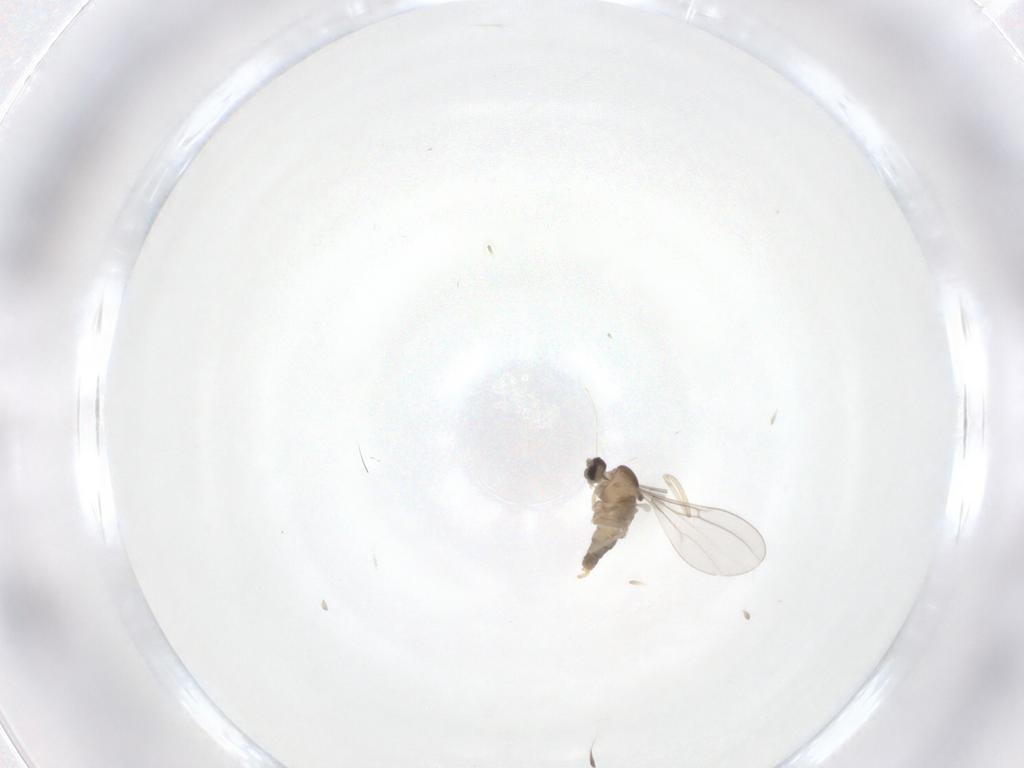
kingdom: Animalia
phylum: Arthropoda
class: Insecta
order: Diptera
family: Cecidomyiidae
